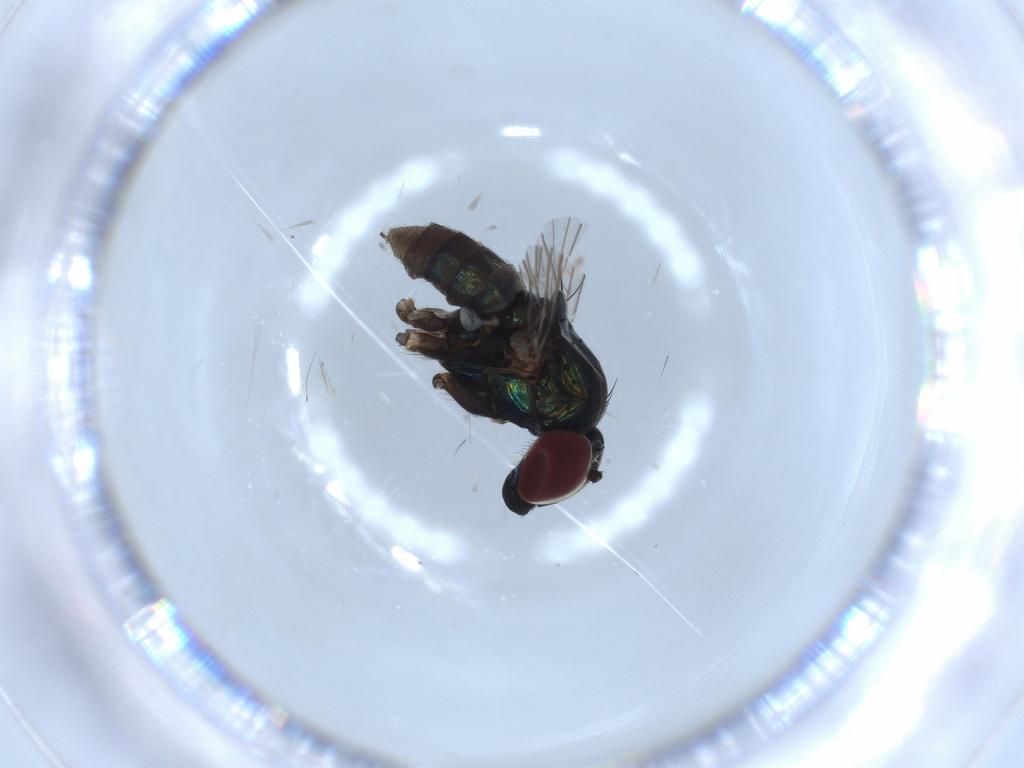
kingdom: Animalia
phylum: Arthropoda
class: Insecta
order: Diptera
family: Dolichopodidae
